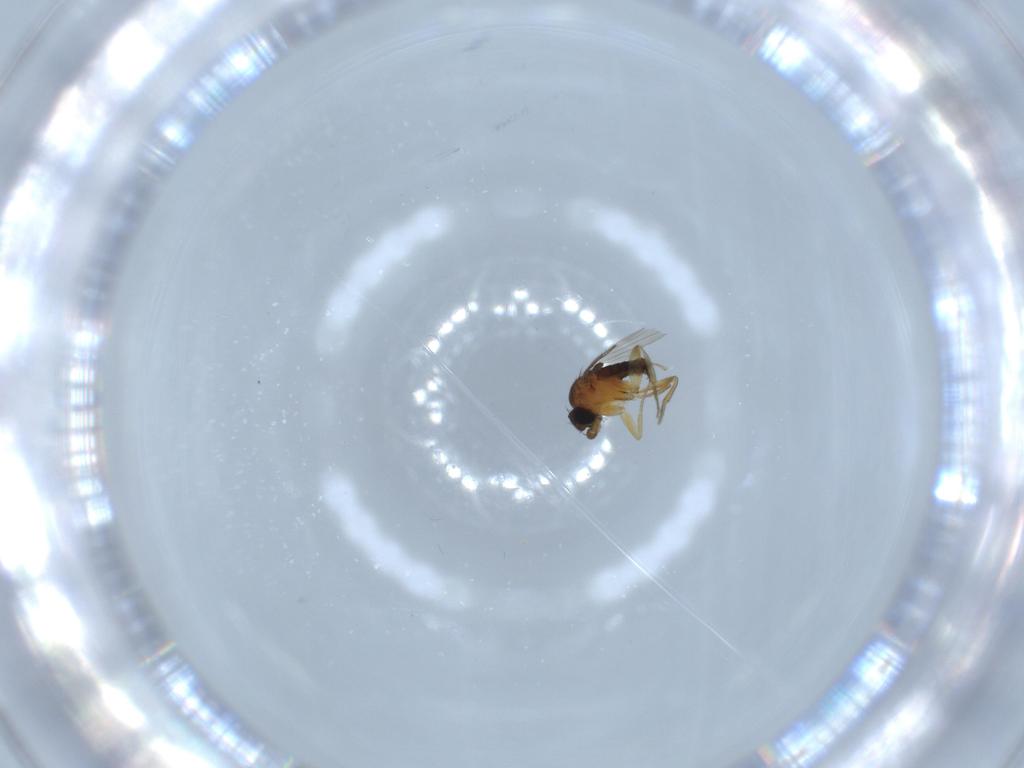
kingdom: Animalia
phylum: Arthropoda
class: Insecta
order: Diptera
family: Phoridae
